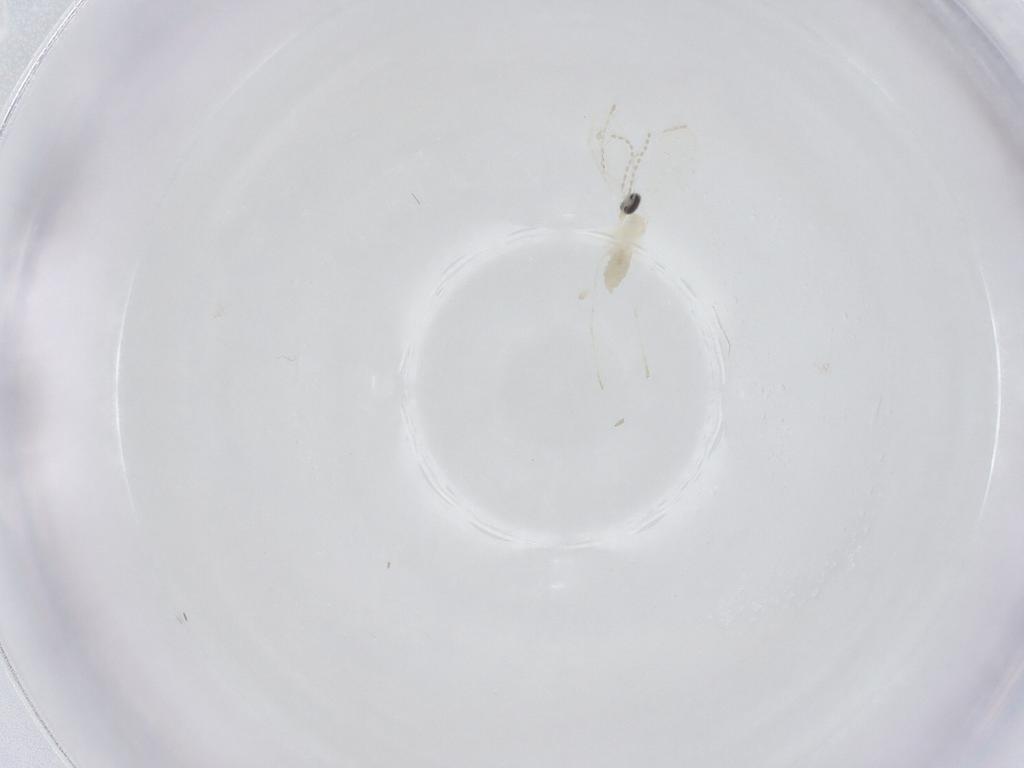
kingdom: Animalia
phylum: Arthropoda
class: Insecta
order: Diptera
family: Cecidomyiidae
